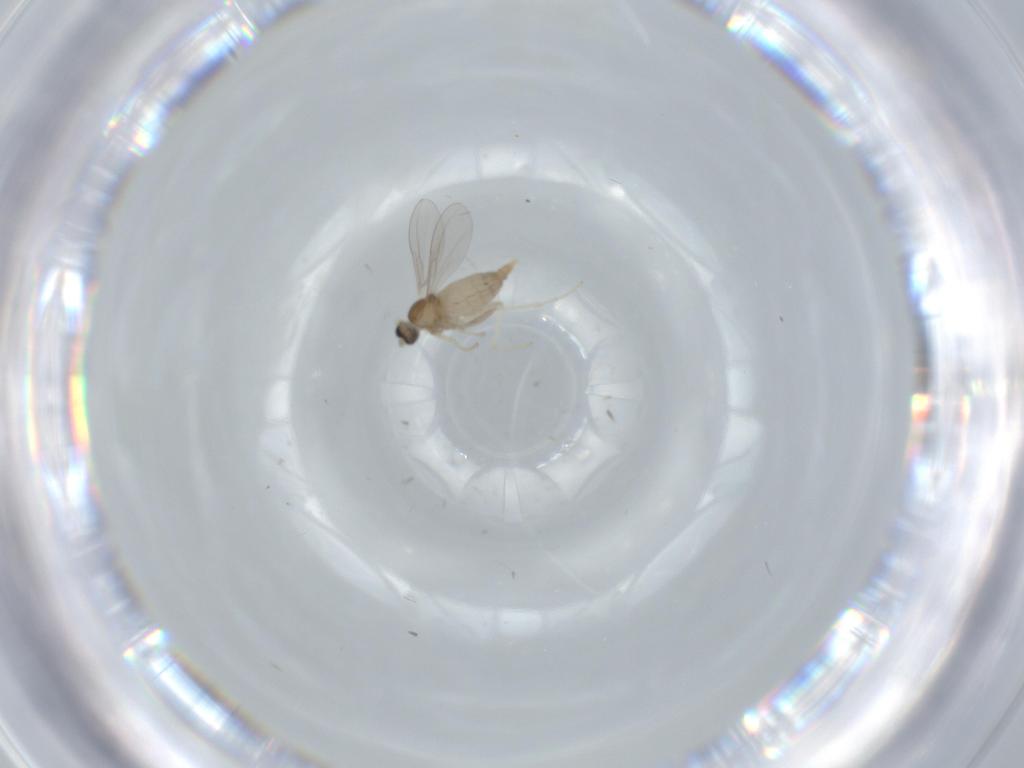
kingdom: Animalia
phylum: Arthropoda
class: Insecta
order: Diptera
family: Cecidomyiidae
